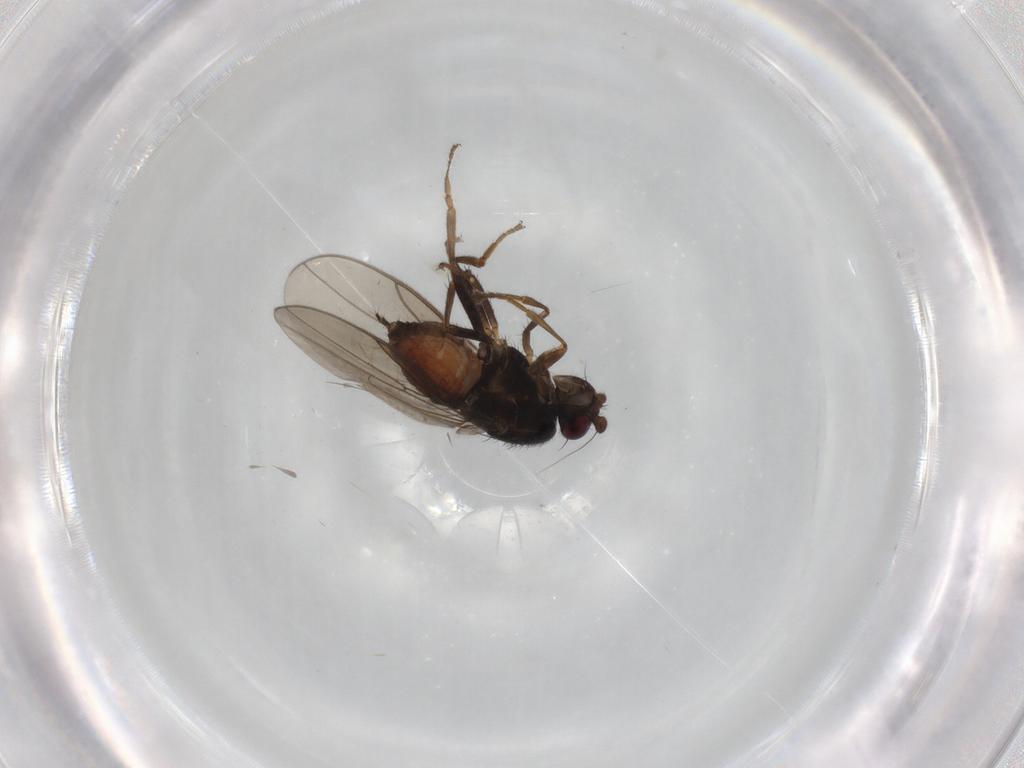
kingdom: Animalia
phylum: Arthropoda
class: Insecta
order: Diptera
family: Sphaeroceridae
